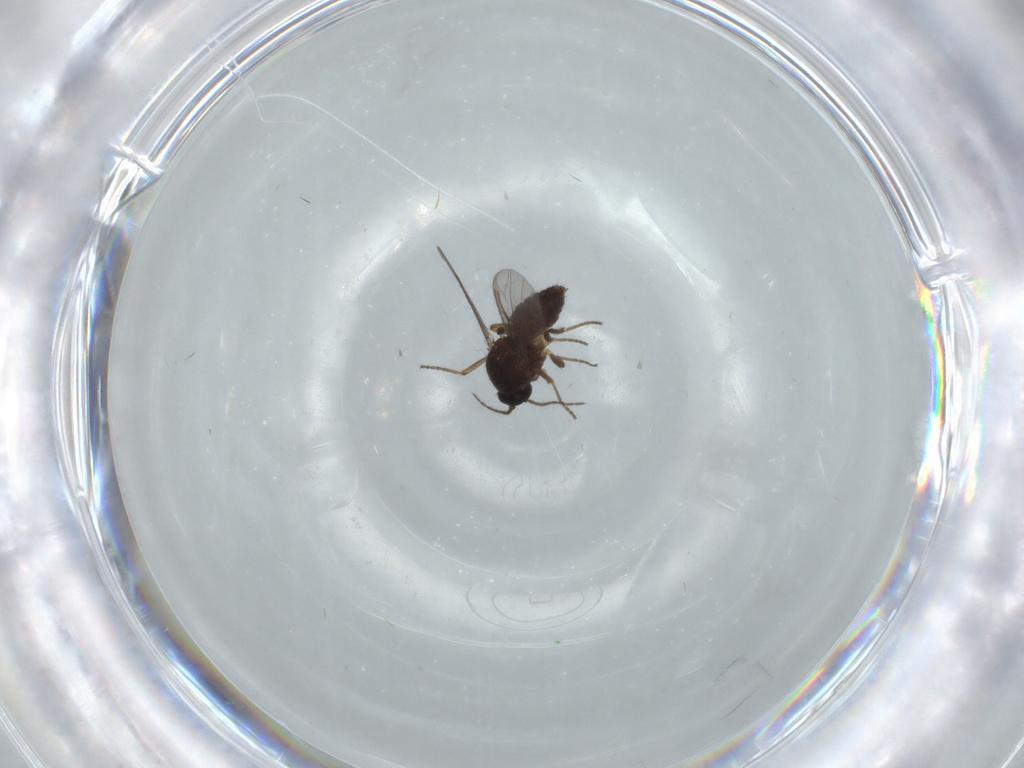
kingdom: Animalia
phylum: Arthropoda
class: Insecta
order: Diptera
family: Ceratopogonidae
